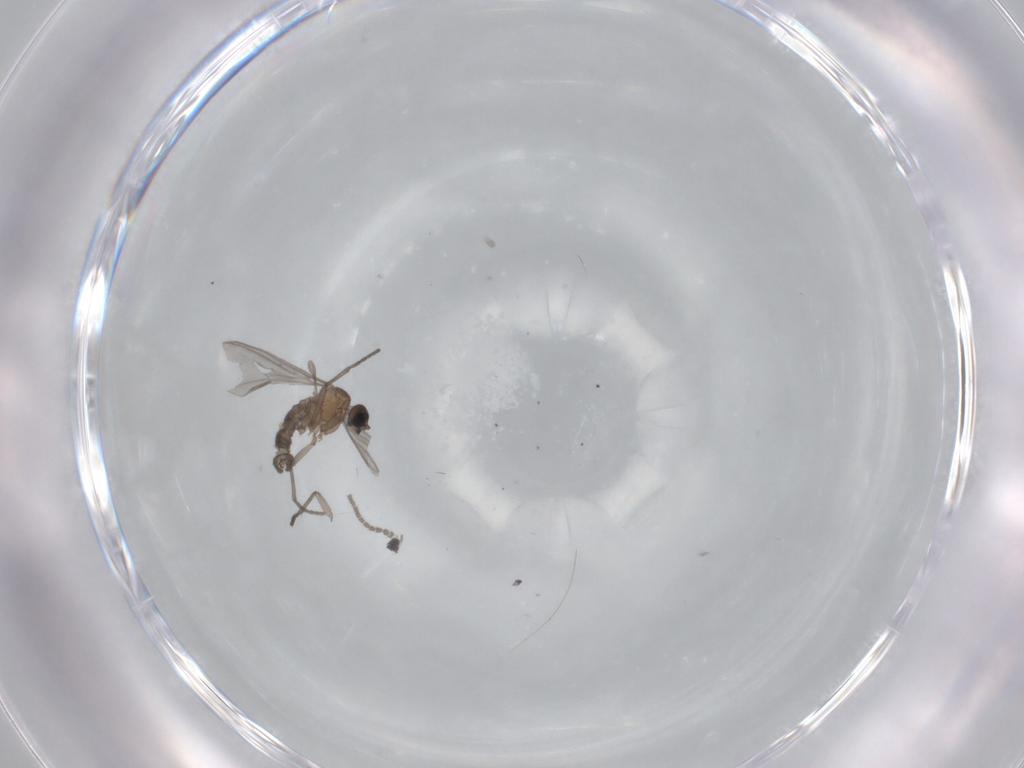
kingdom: Animalia
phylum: Arthropoda
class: Insecta
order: Diptera
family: Sciaridae
